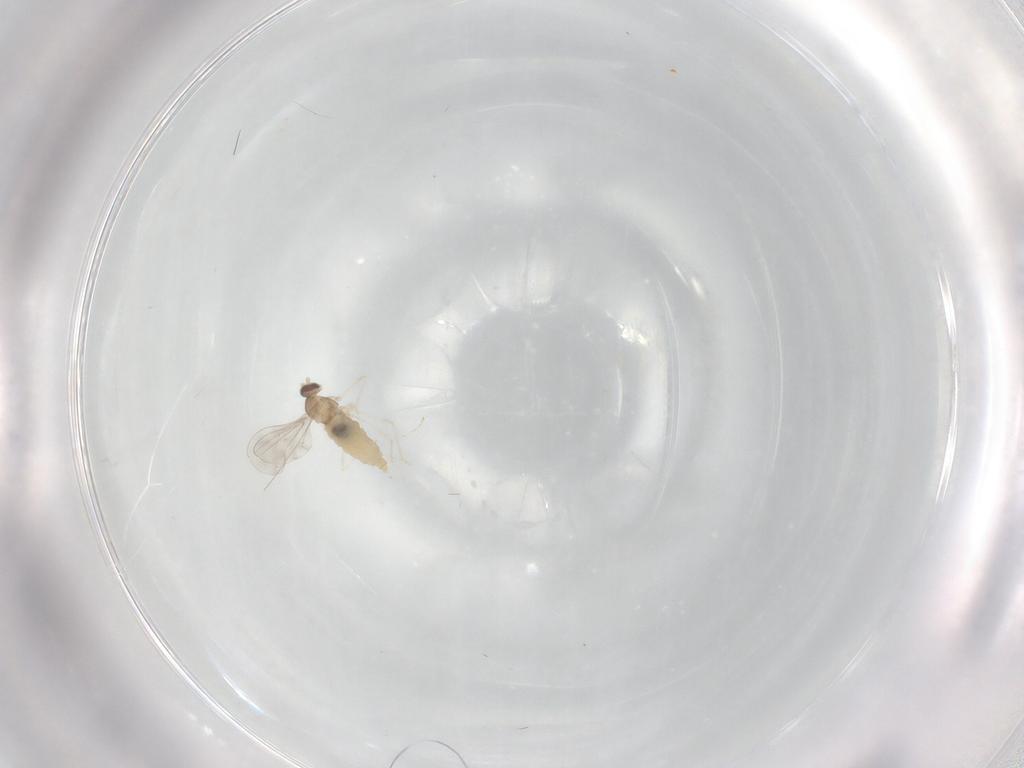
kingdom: Animalia
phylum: Arthropoda
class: Insecta
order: Diptera
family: Cecidomyiidae
